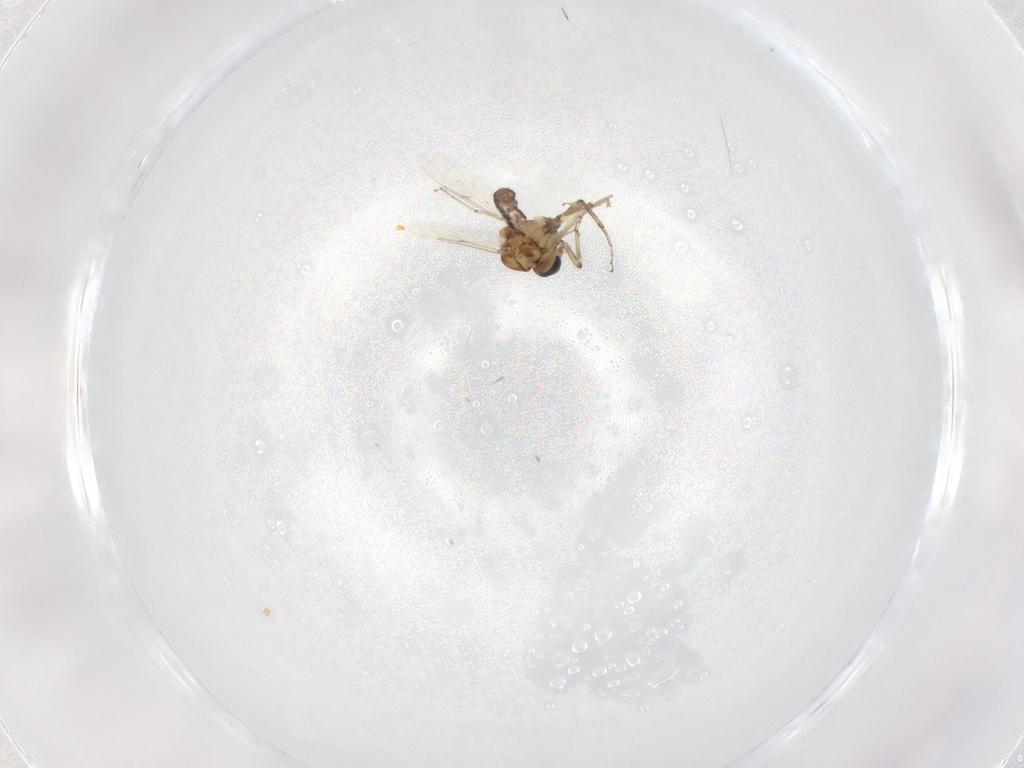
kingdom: Animalia
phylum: Arthropoda
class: Insecta
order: Diptera
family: Ceratopogonidae
